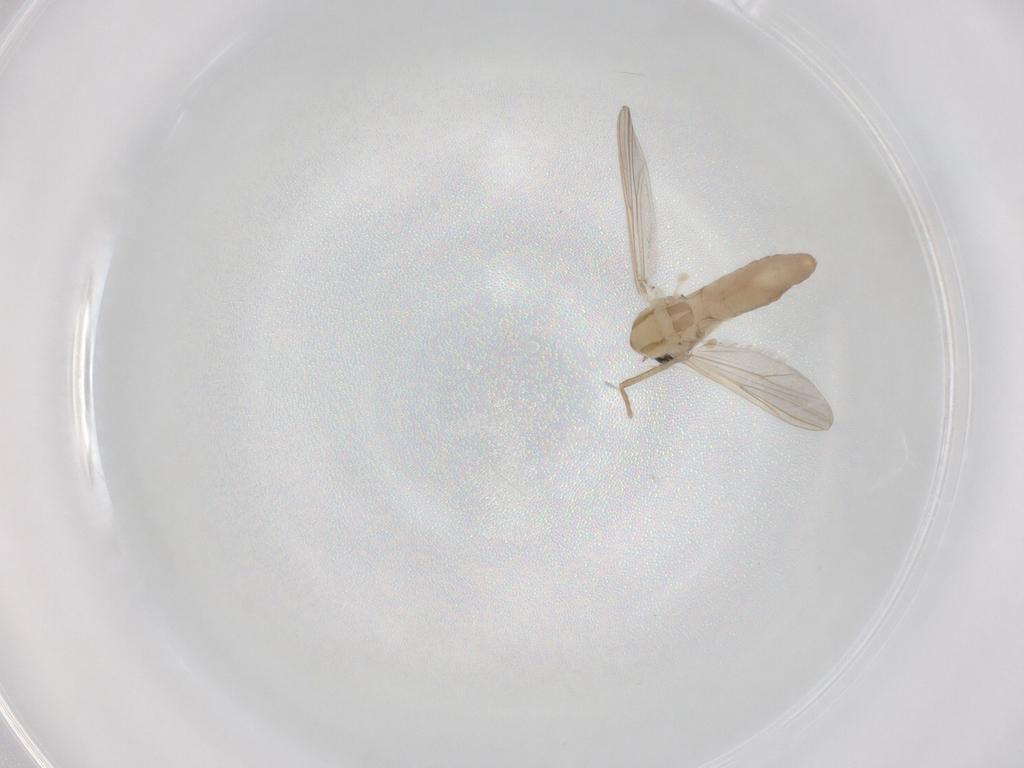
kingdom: Animalia
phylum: Arthropoda
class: Insecta
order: Diptera
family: Chironomidae
